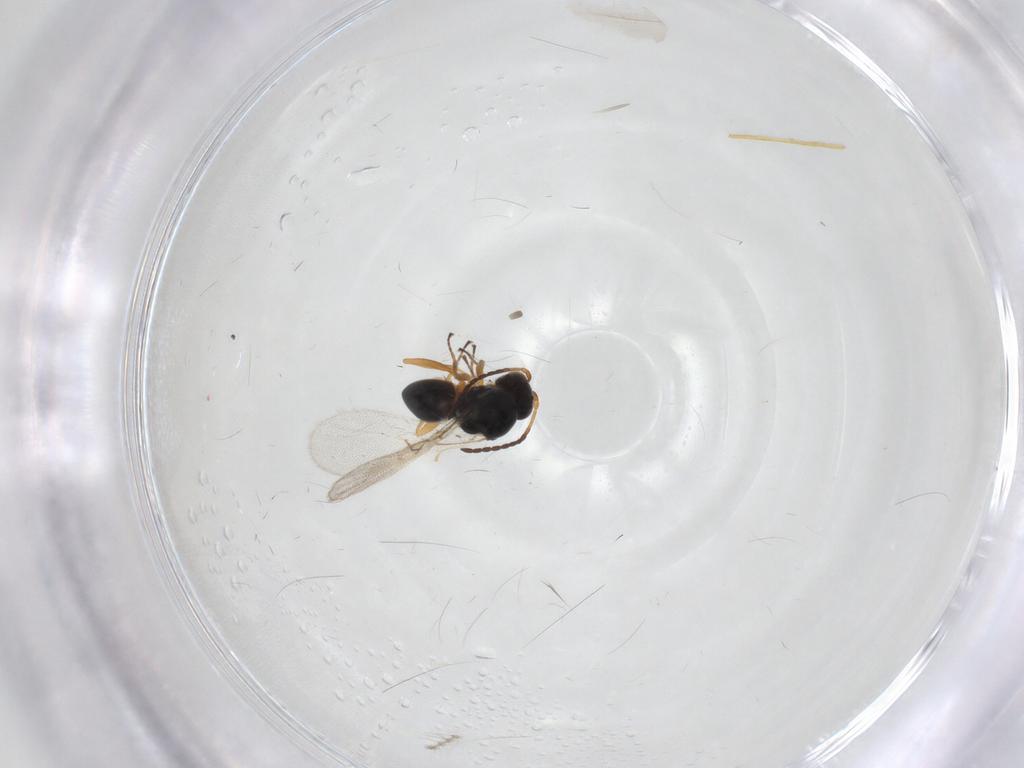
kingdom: Animalia
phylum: Arthropoda
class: Insecta
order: Hymenoptera
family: Figitidae
